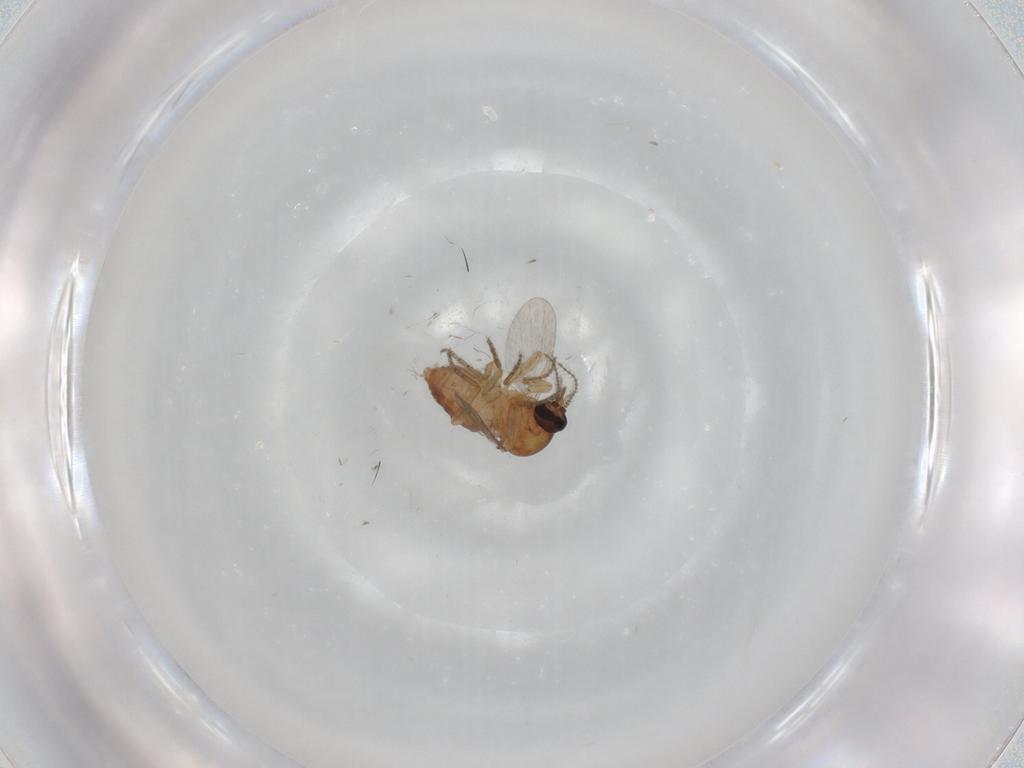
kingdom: Animalia
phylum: Arthropoda
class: Insecta
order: Diptera
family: Ceratopogonidae
